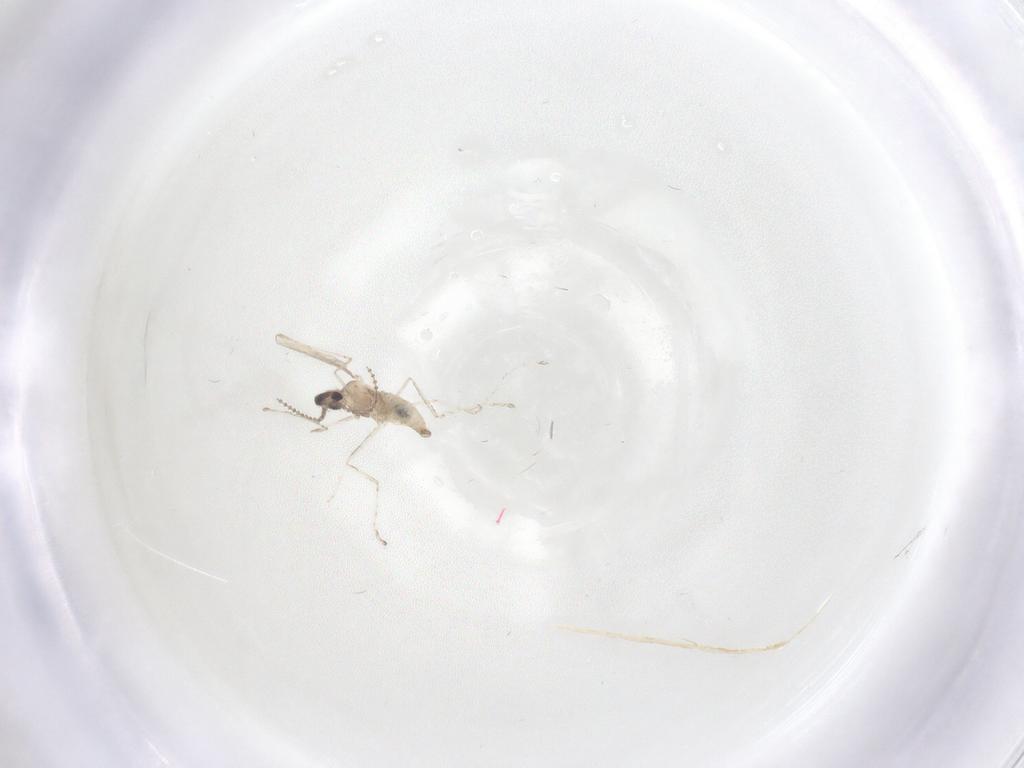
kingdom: Animalia
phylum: Arthropoda
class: Insecta
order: Diptera
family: Cecidomyiidae
